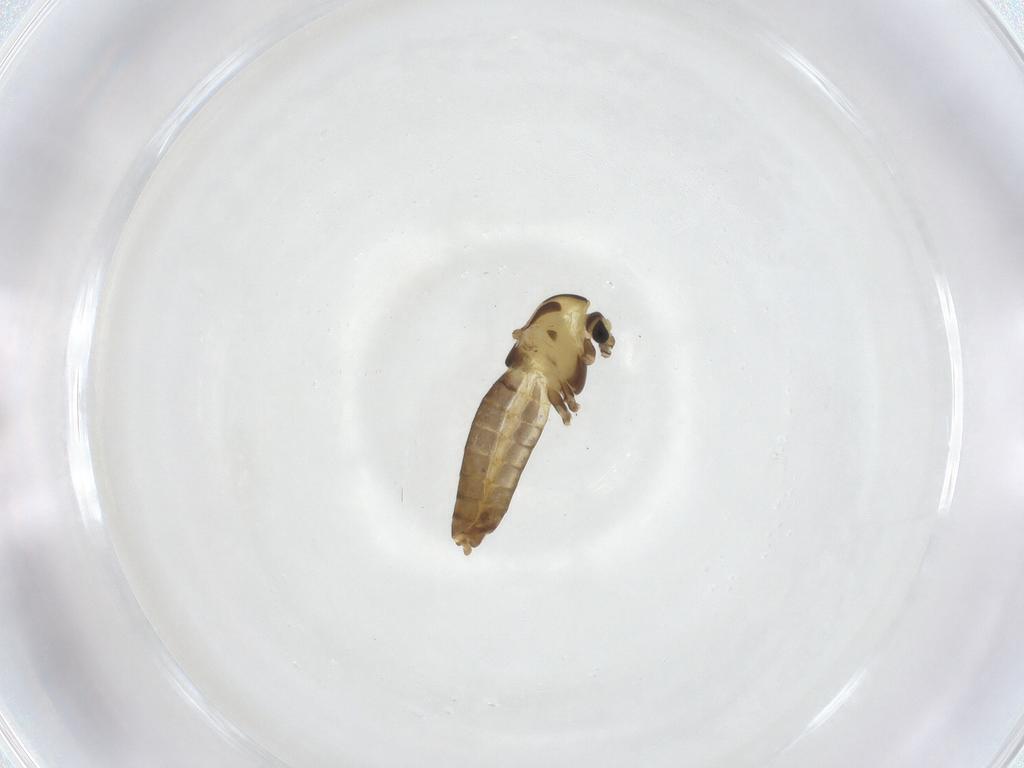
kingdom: Animalia
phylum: Arthropoda
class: Insecta
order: Diptera
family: Chironomidae
